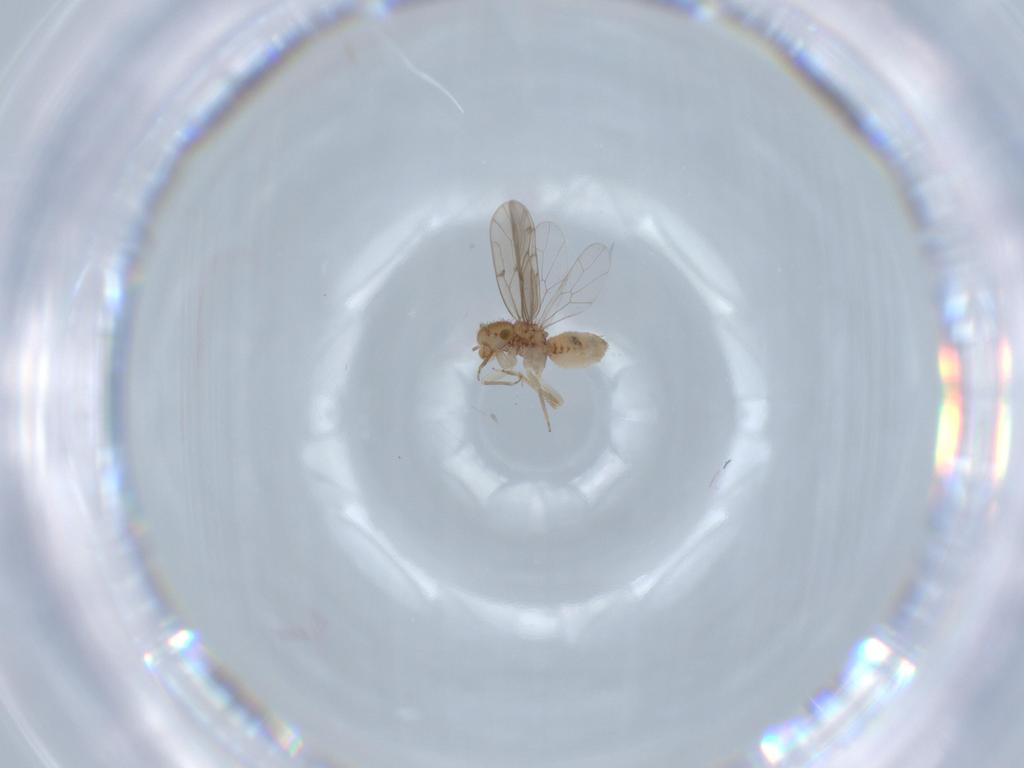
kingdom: Animalia
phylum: Arthropoda
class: Insecta
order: Psocodea
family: Ectopsocidae
